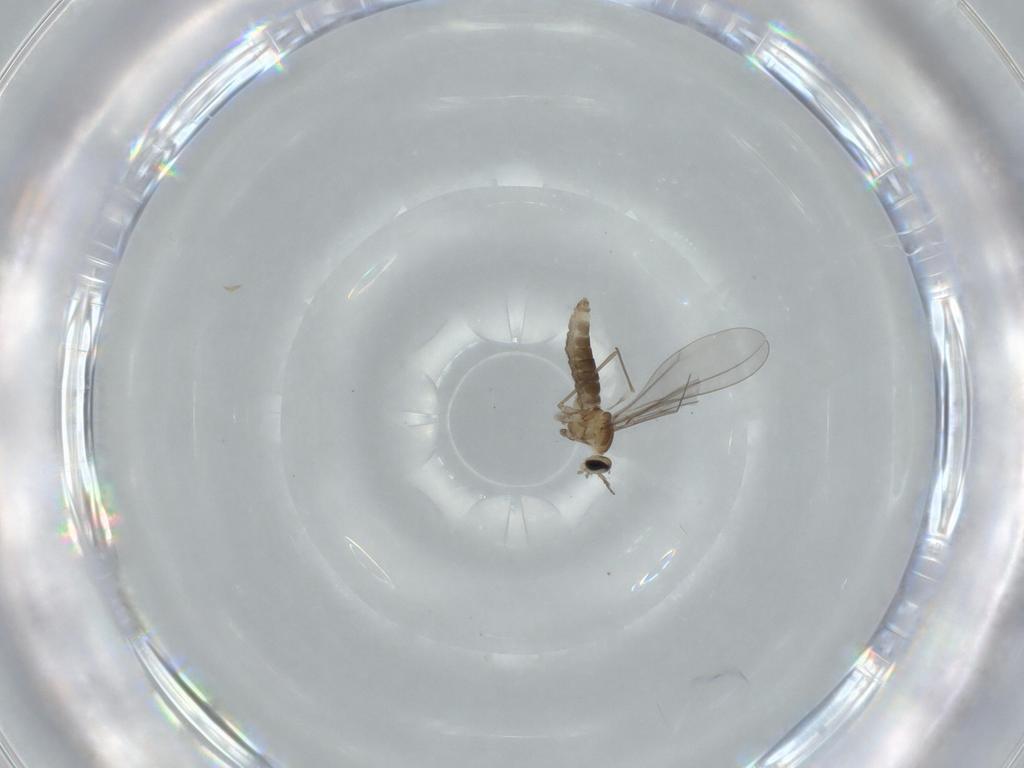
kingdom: Animalia
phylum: Arthropoda
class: Insecta
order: Diptera
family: Cecidomyiidae
